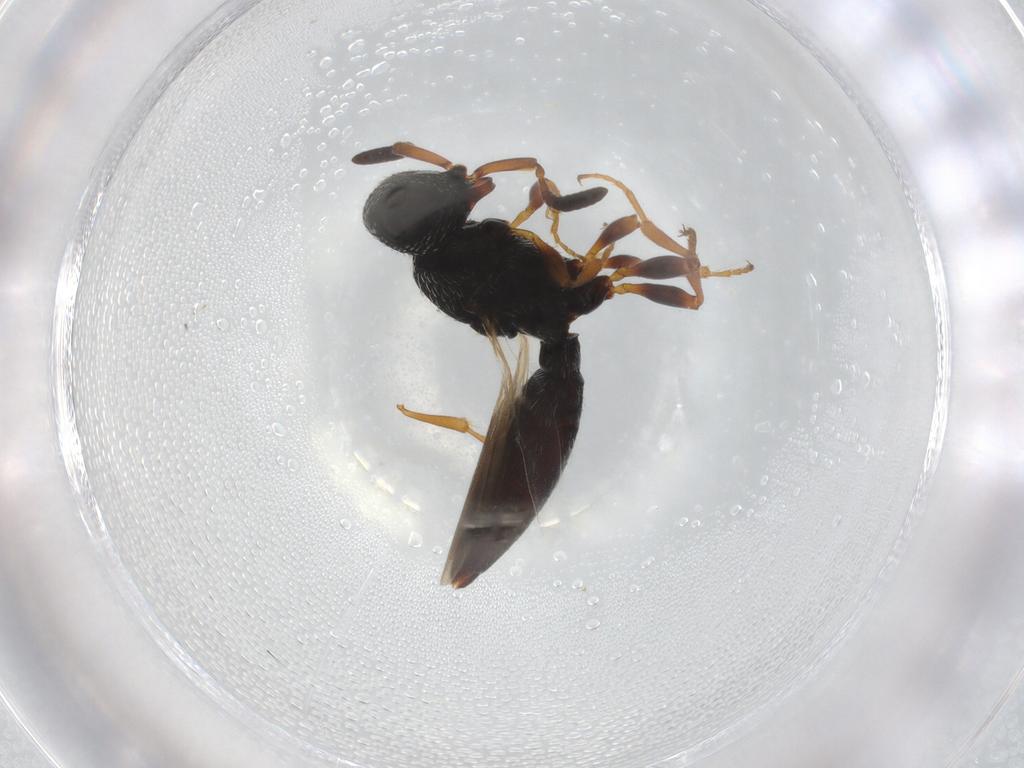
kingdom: Animalia
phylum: Arthropoda
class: Insecta
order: Hymenoptera
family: Scelionidae
